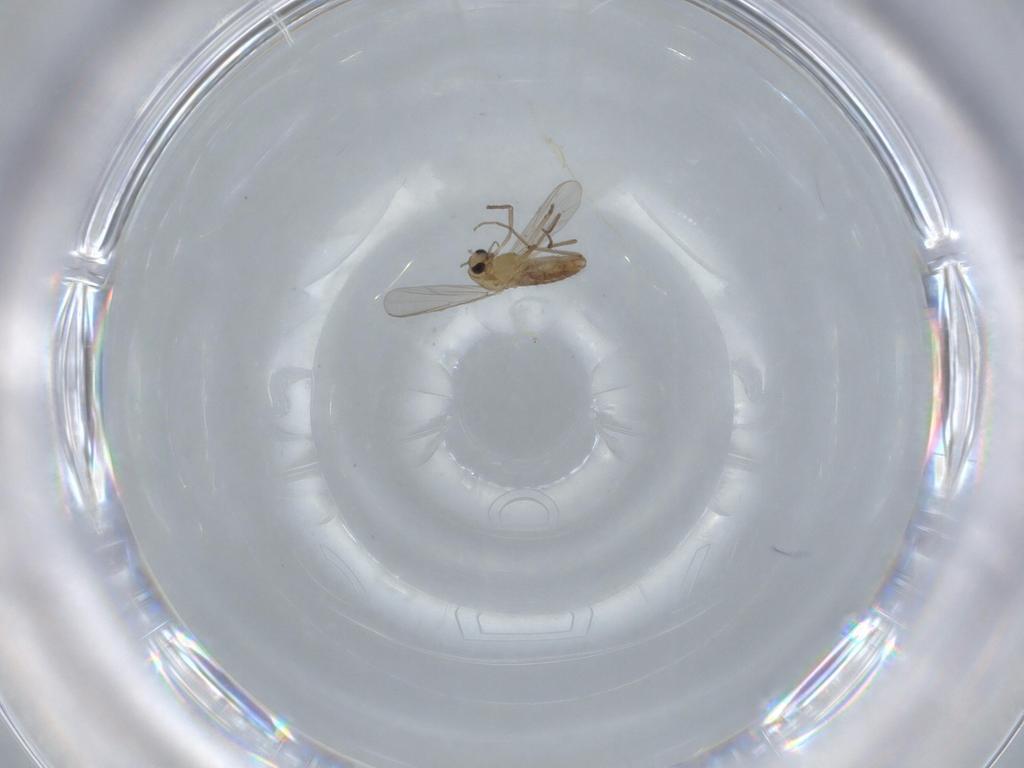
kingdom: Animalia
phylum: Arthropoda
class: Insecta
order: Diptera
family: Chironomidae
